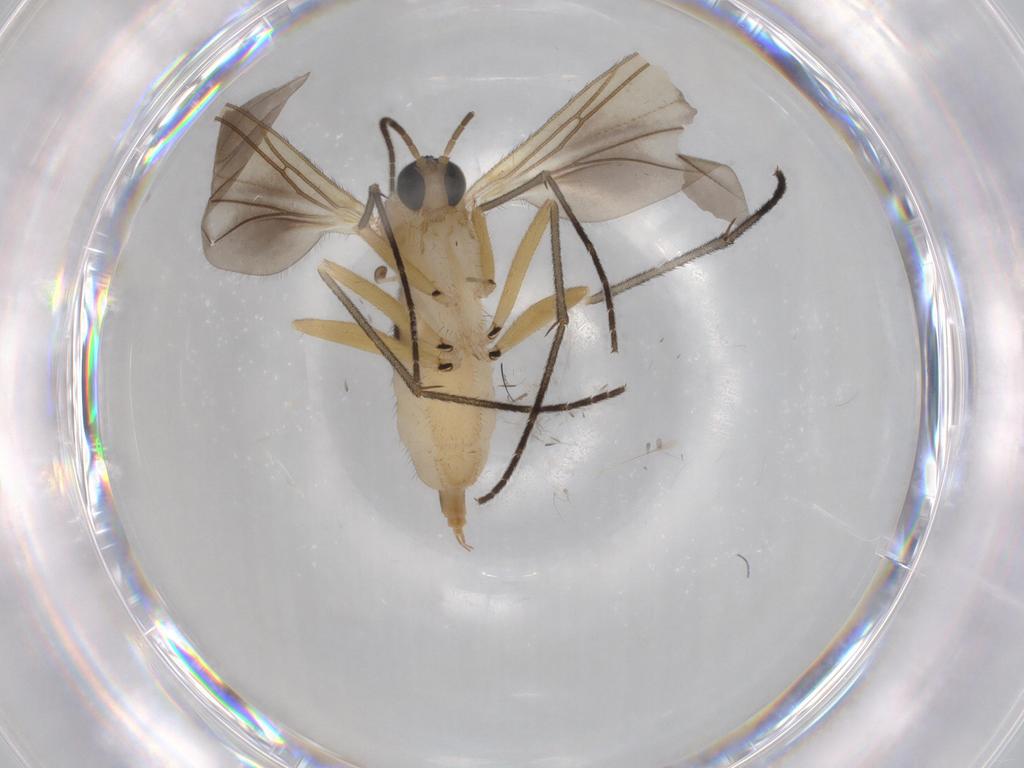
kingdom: Animalia
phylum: Arthropoda
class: Insecta
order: Diptera
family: Sciaridae
